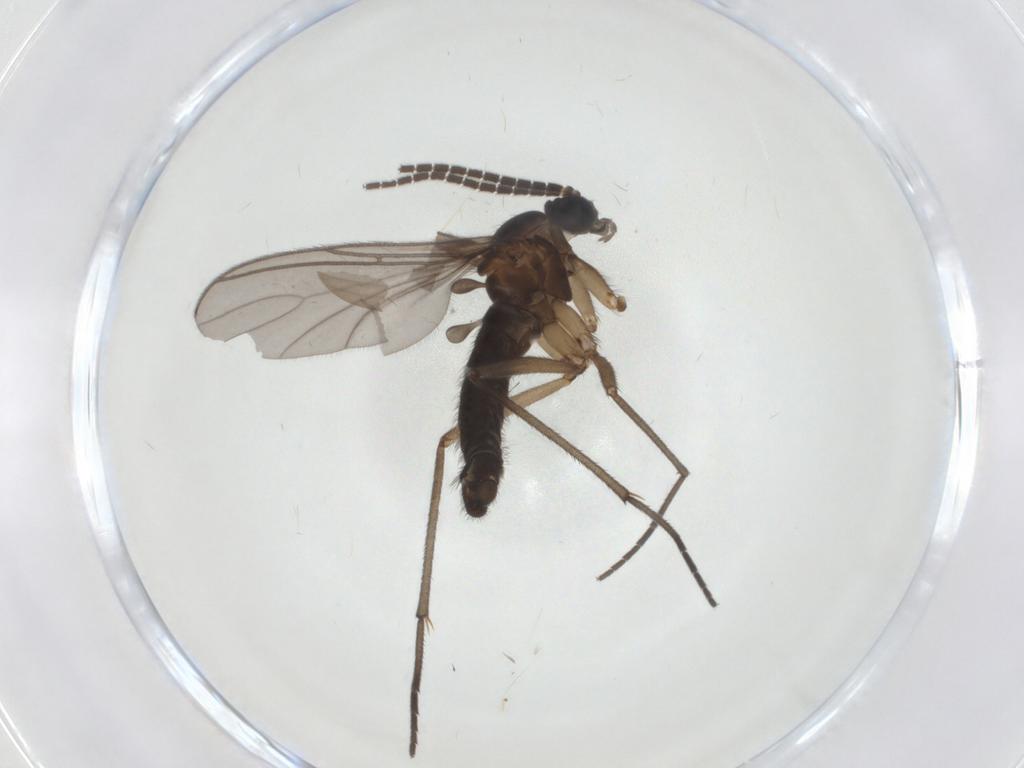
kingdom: Animalia
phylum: Arthropoda
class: Insecta
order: Diptera
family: Sciaridae
